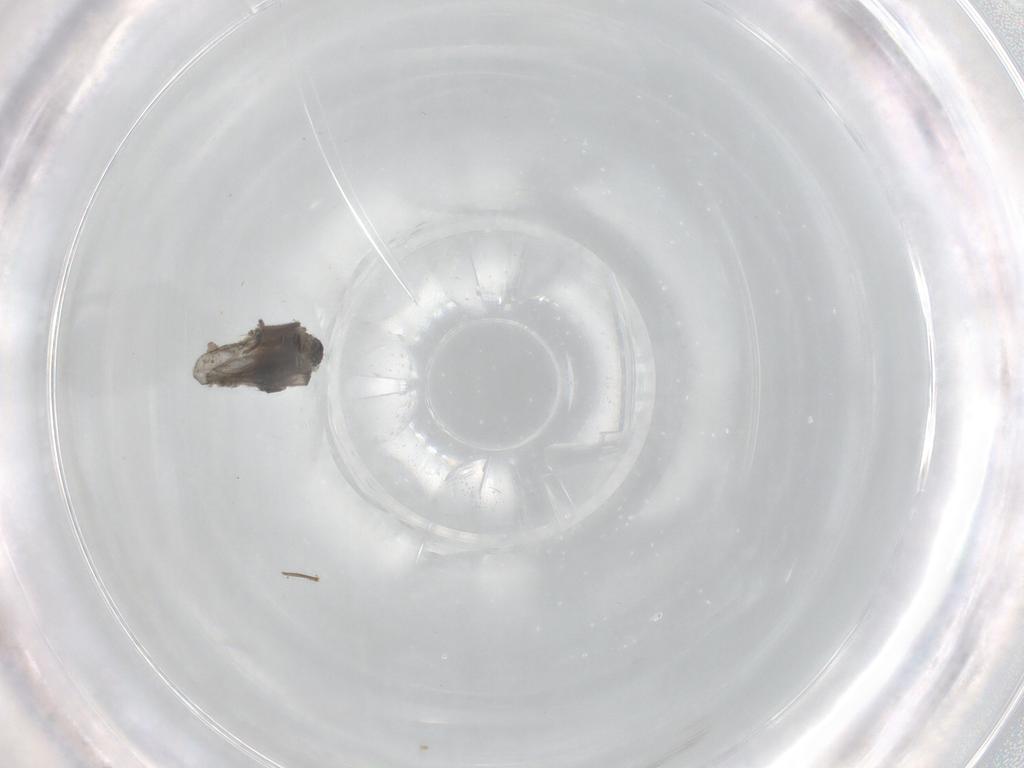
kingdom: Animalia
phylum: Arthropoda
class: Insecta
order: Diptera
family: Phoridae
